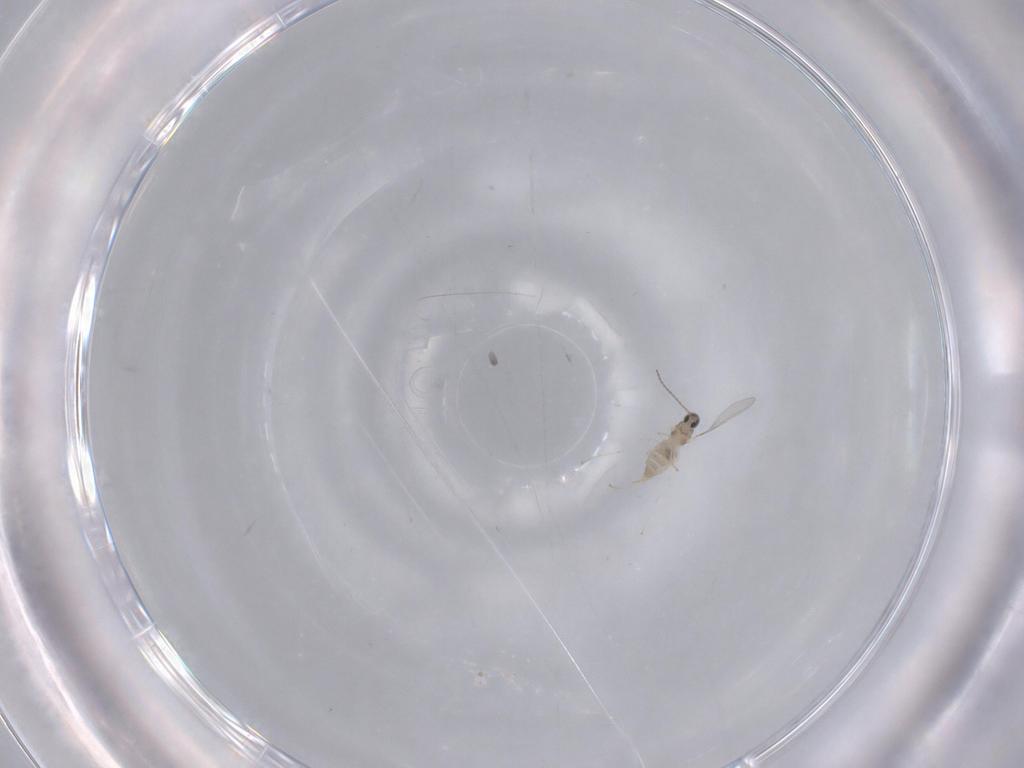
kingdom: Animalia
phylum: Arthropoda
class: Insecta
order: Diptera
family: Cecidomyiidae
